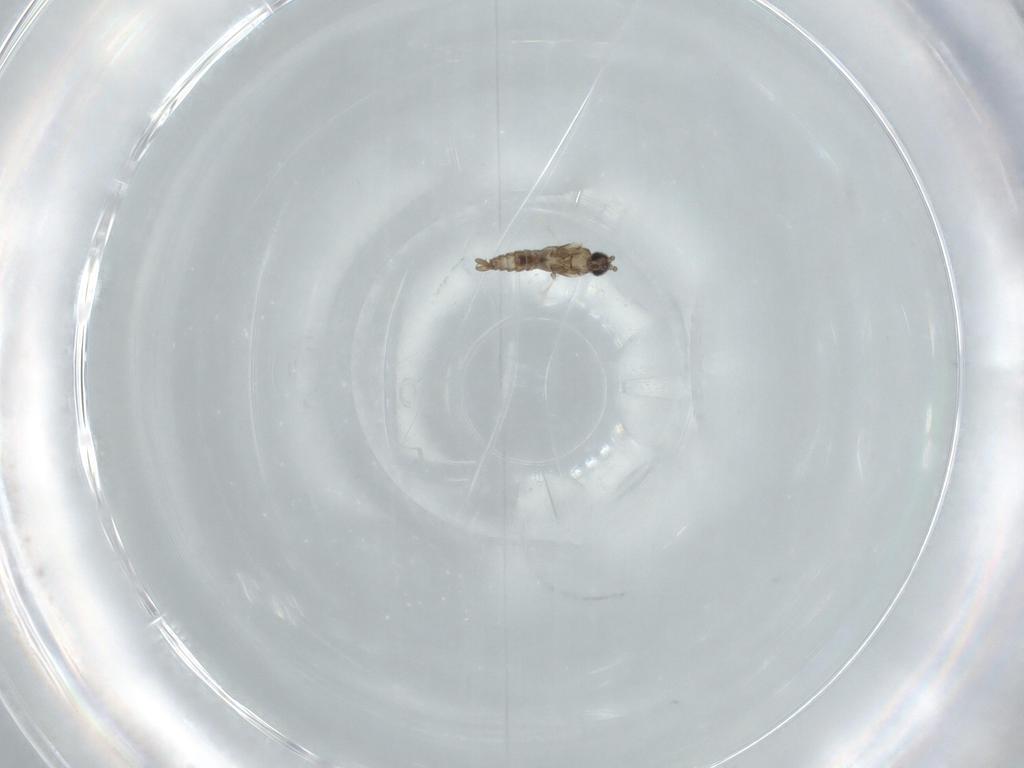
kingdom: Animalia
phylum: Arthropoda
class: Insecta
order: Diptera
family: Cecidomyiidae
